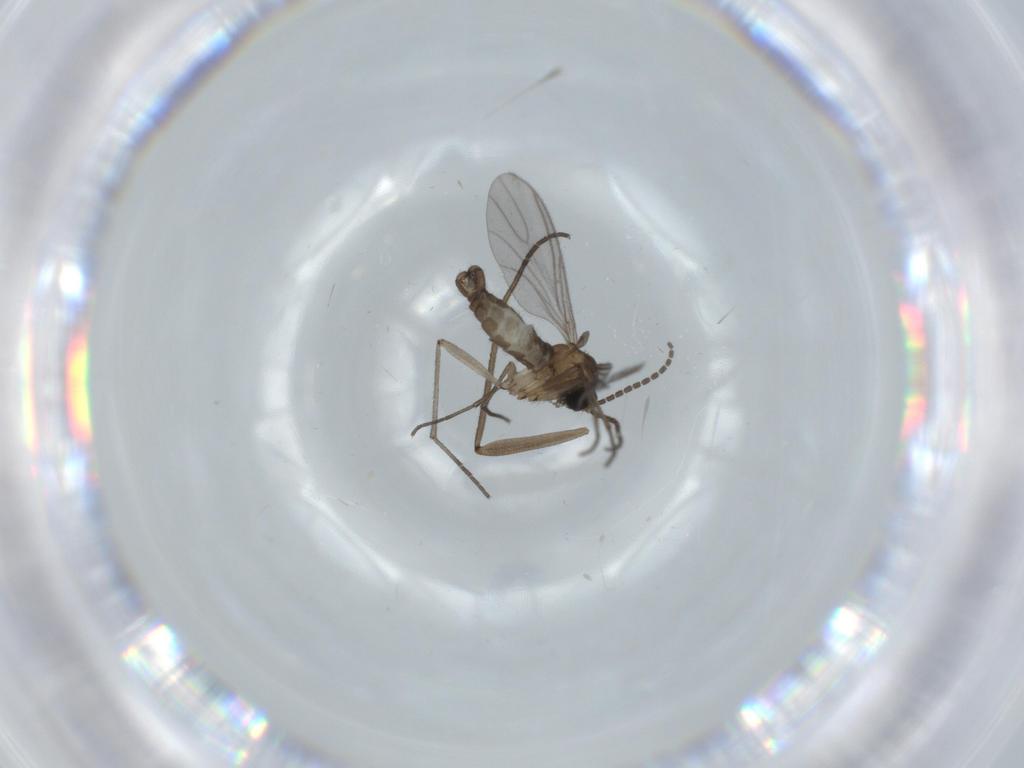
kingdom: Animalia
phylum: Arthropoda
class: Insecta
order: Diptera
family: Sciaridae
